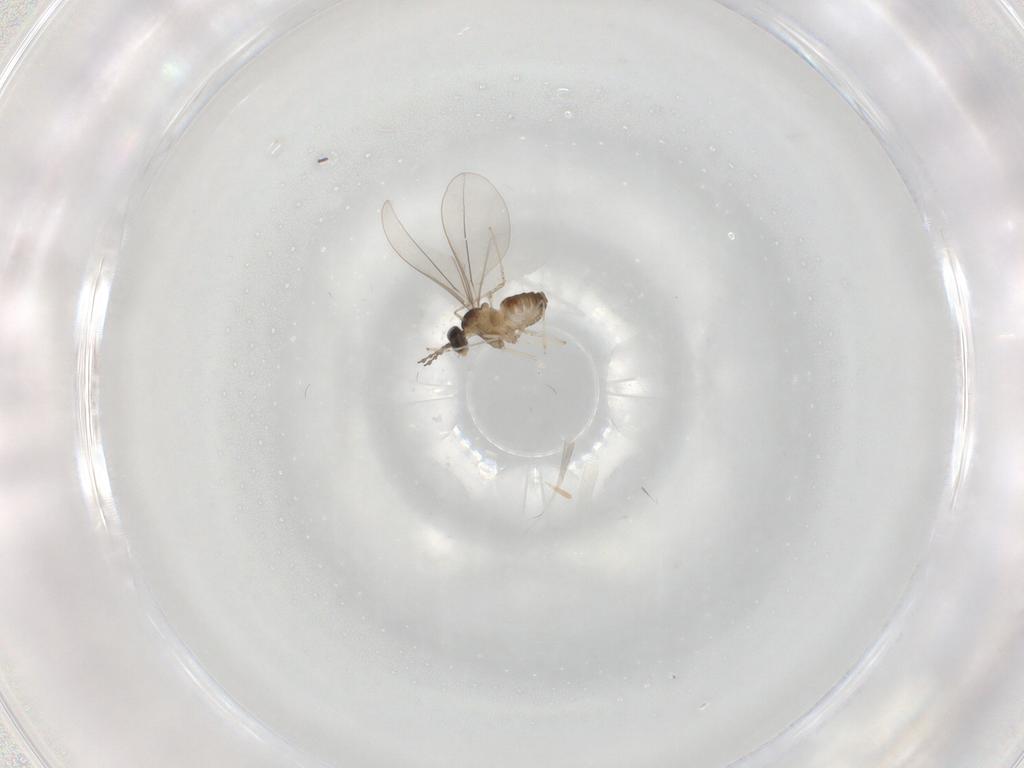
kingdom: Animalia
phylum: Arthropoda
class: Insecta
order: Diptera
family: Cecidomyiidae
